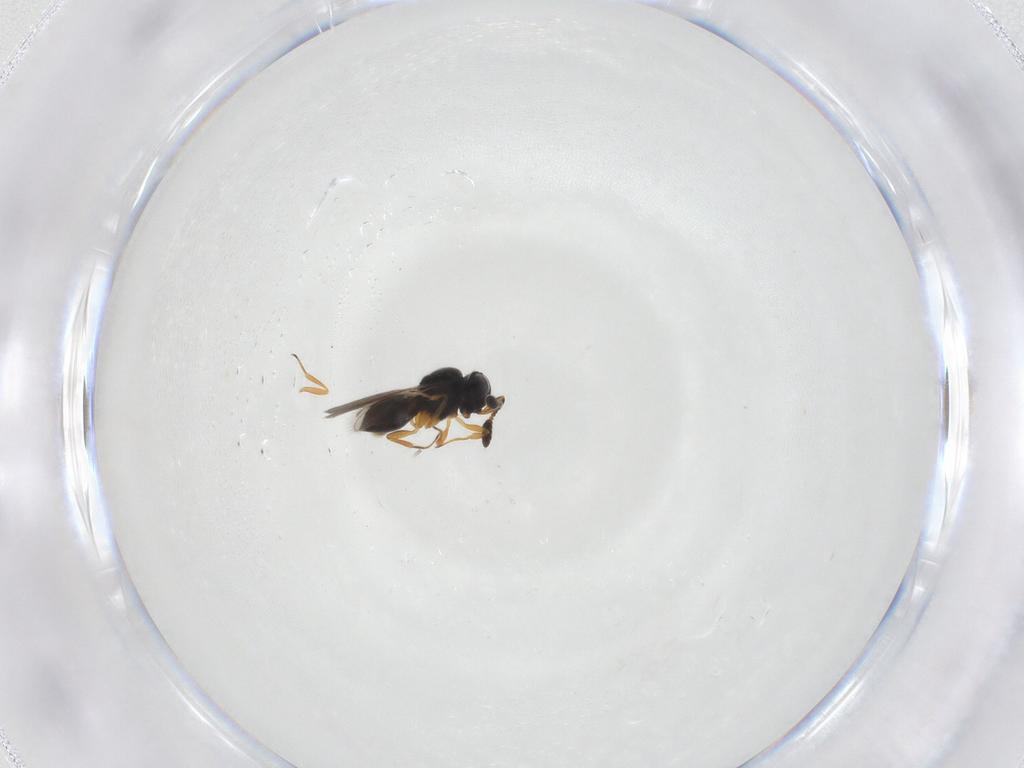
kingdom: Animalia
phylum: Arthropoda
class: Insecta
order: Hymenoptera
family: Scelionidae
